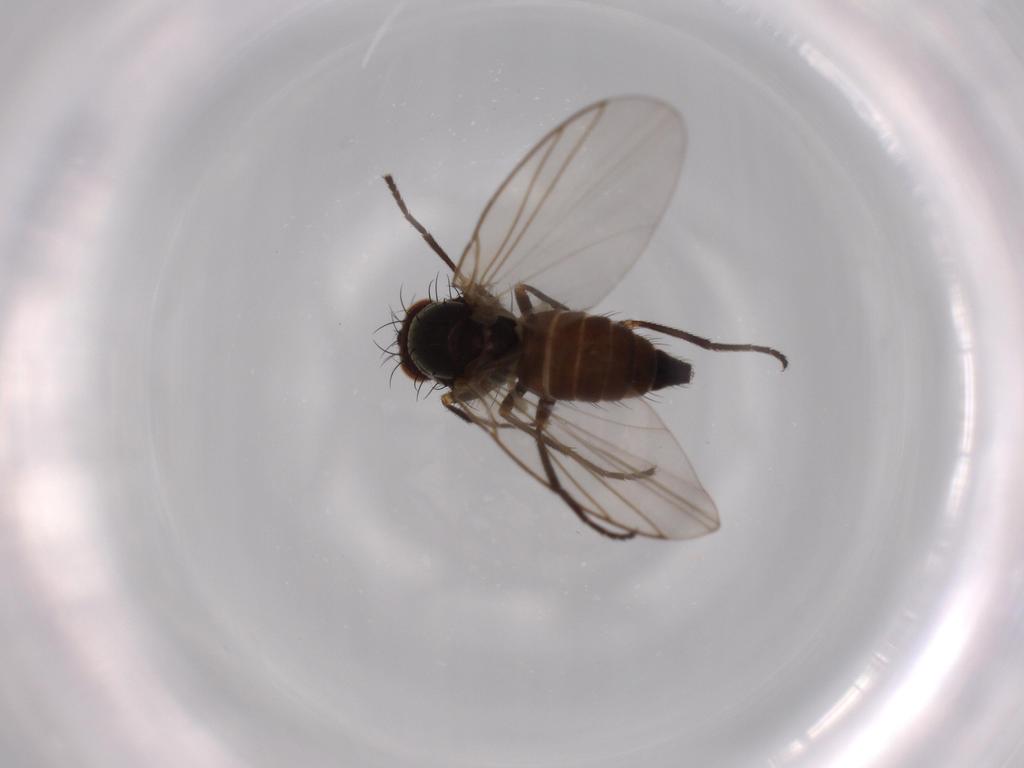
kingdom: Animalia
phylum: Arthropoda
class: Insecta
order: Diptera
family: Agromyzidae
